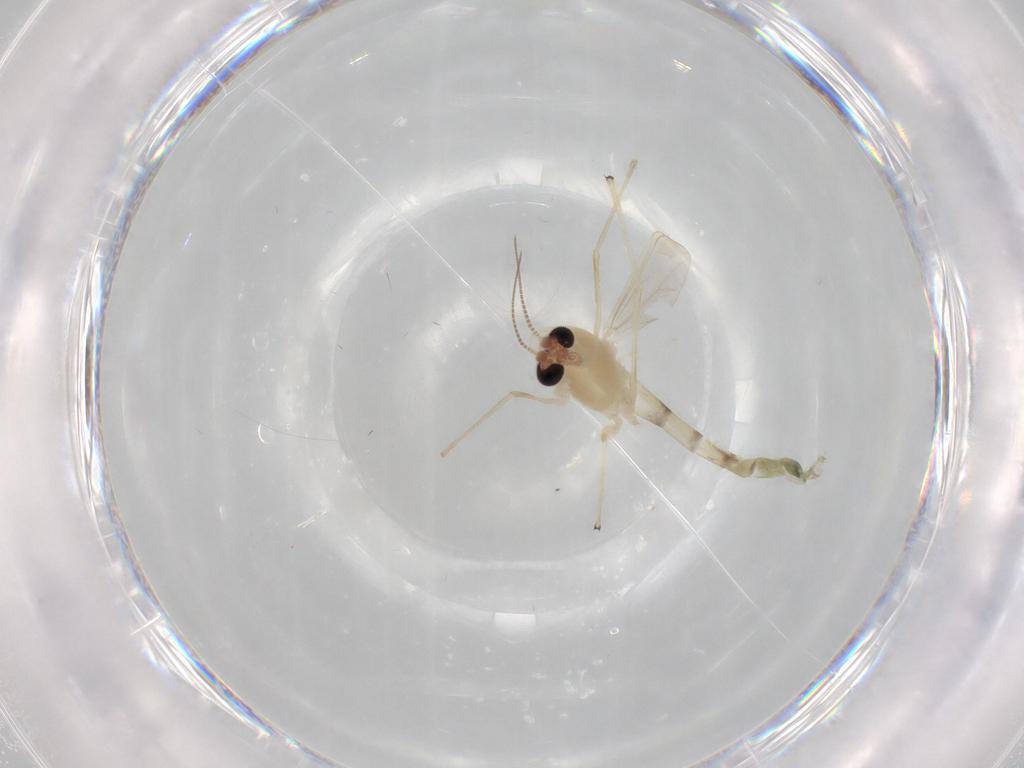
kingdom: Animalia
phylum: Arthropoda
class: Insecta
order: Diptera
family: Chironomidae
